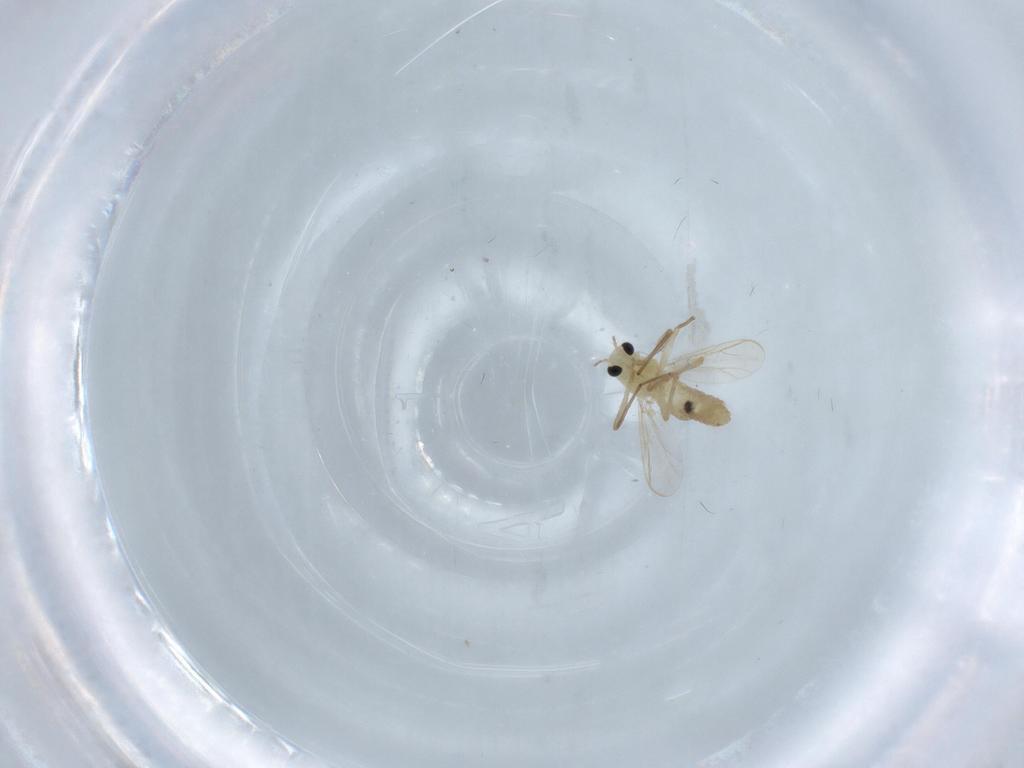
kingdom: Animalia
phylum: Arthropoda
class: Insecta
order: Diptera
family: Chironomidae
